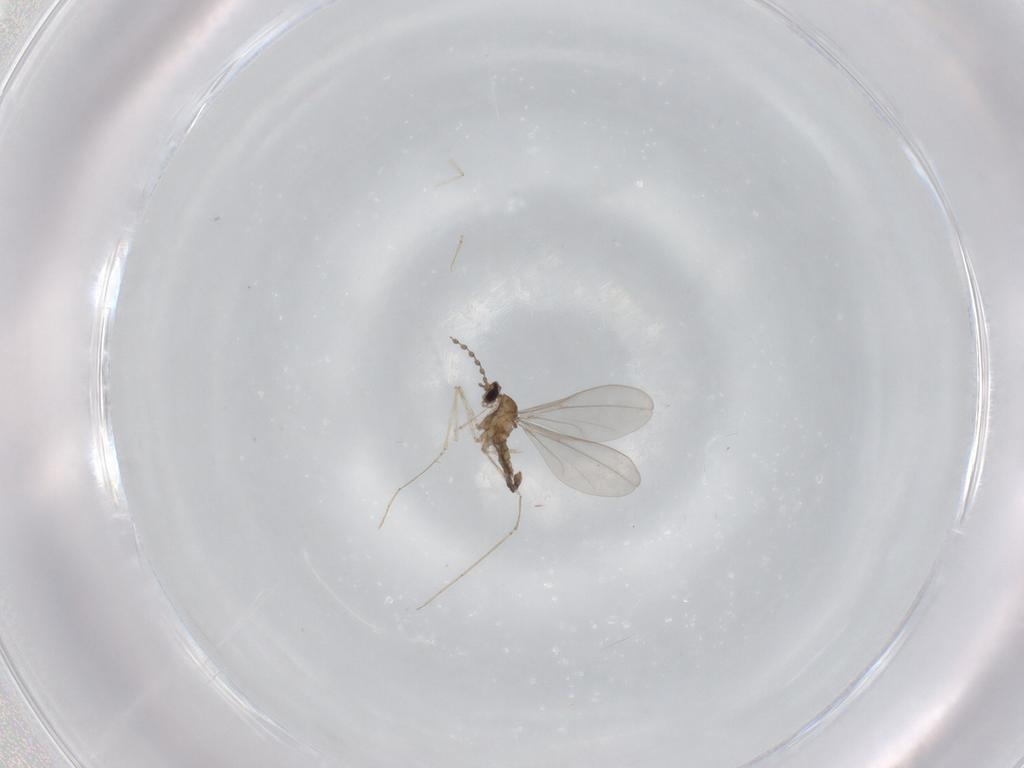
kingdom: Animalia
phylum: Arthropoda
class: Insecta
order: Diptera
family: Cecidomyiidae
